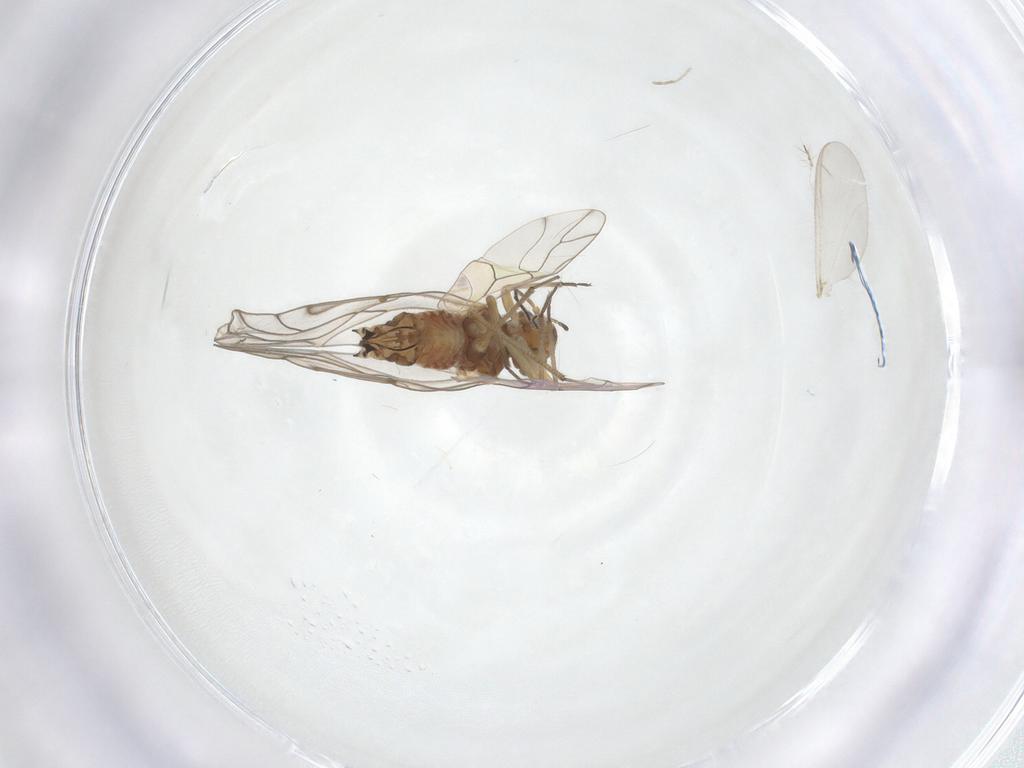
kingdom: Animalia
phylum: Arthropoda
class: Insecta
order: Psocodea
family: Lachesillidae
